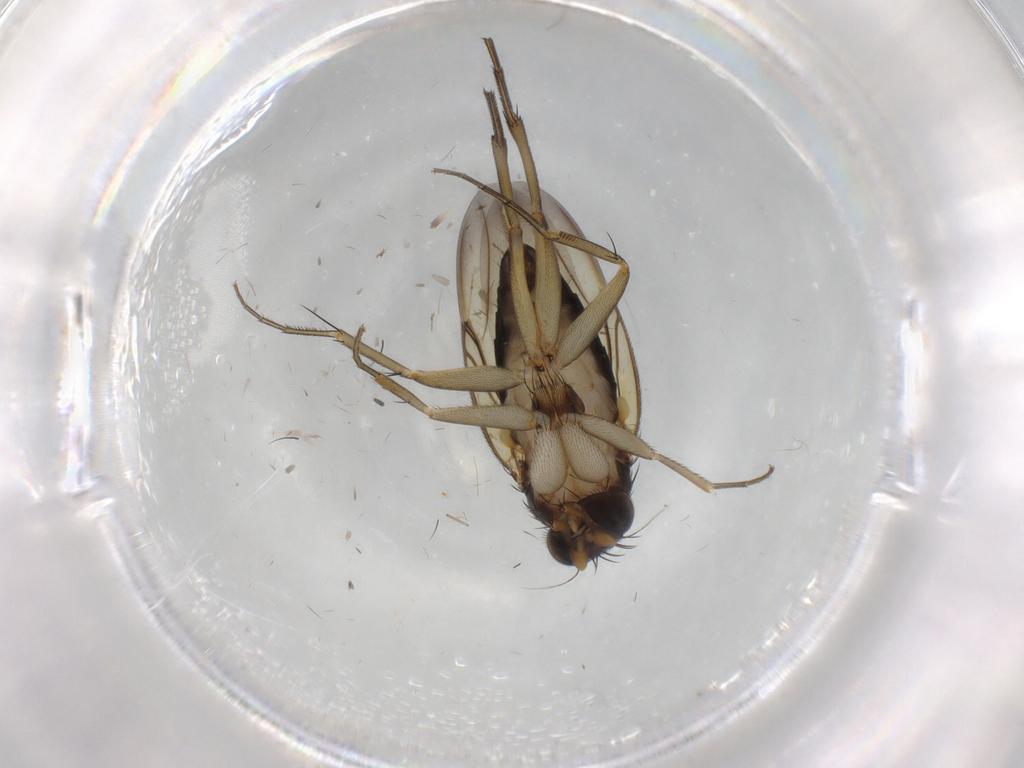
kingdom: Animalia
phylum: Arthropoda
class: Insecta
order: Diptera
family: Phoridae
